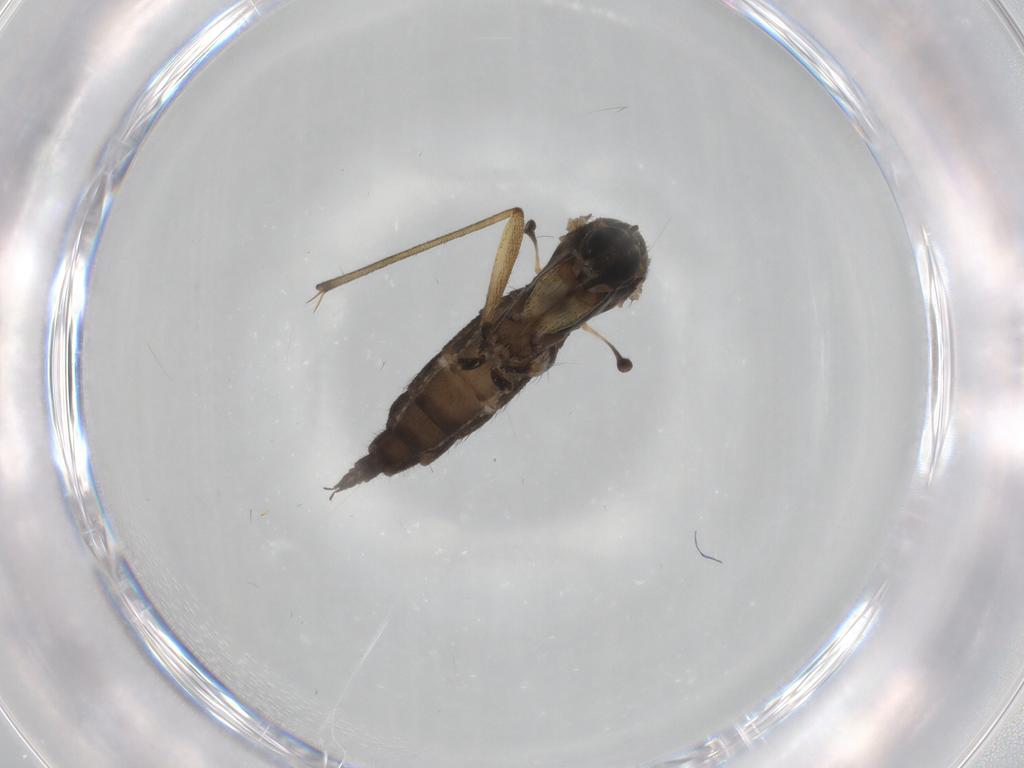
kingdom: Animalia
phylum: Arthropoda
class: Insecta
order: Diptera
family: Sciaridae
